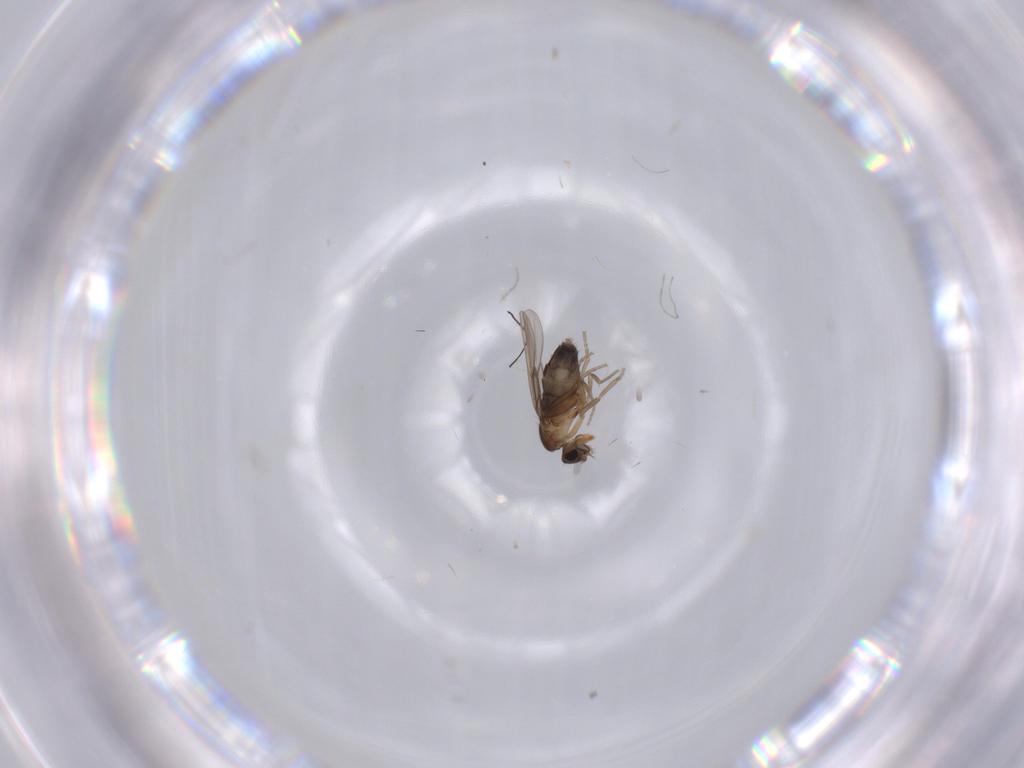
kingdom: Animalia
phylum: Arthropoda
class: Insecta
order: Diptera
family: Phoridae
